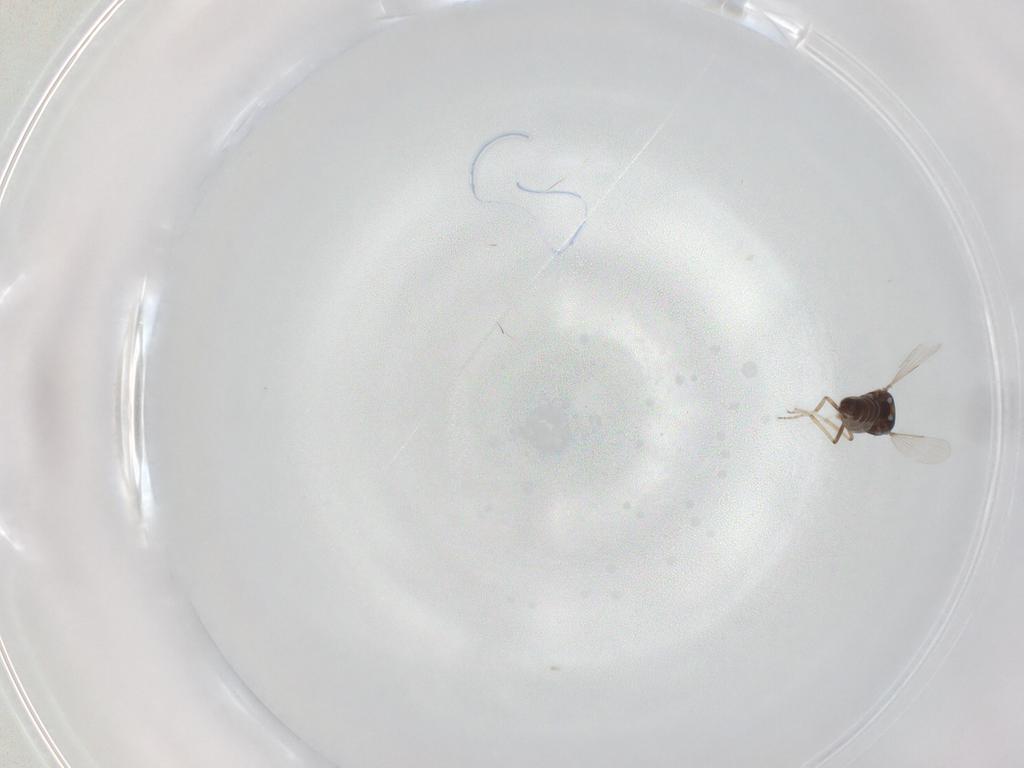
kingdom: Animalia
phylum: Arthropoda
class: Insecta
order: Diptera
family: Ceratopogonidae
